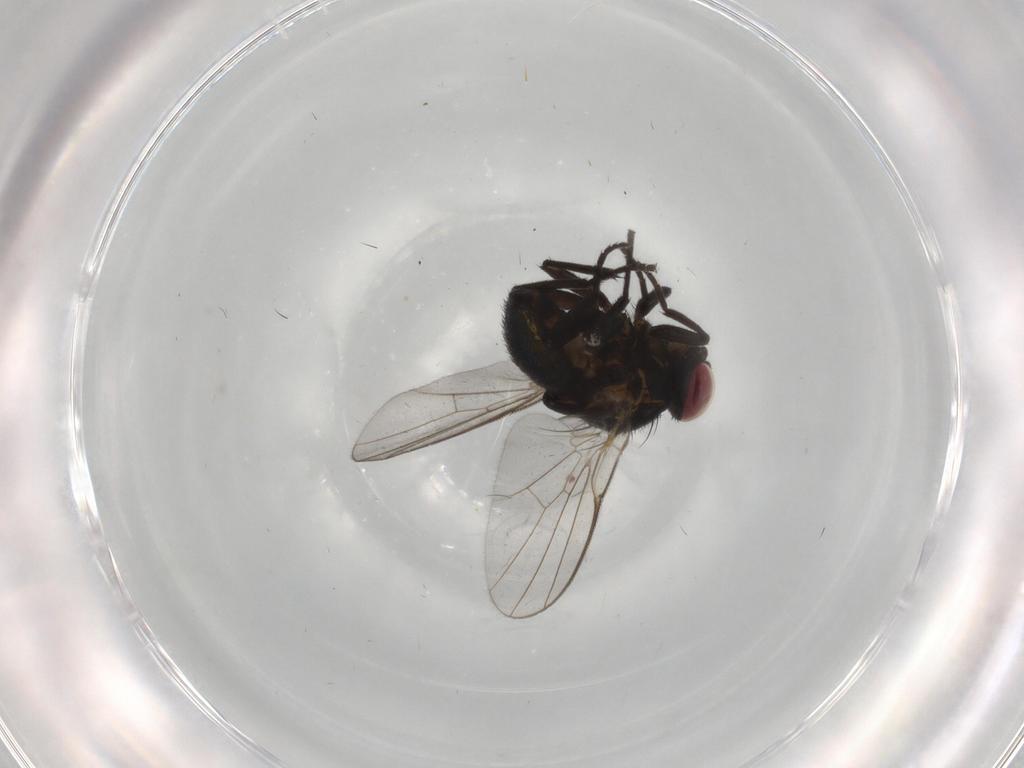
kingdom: Animalia
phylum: Arthropoda
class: Insecta
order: Diptera
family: Agromyzidae
